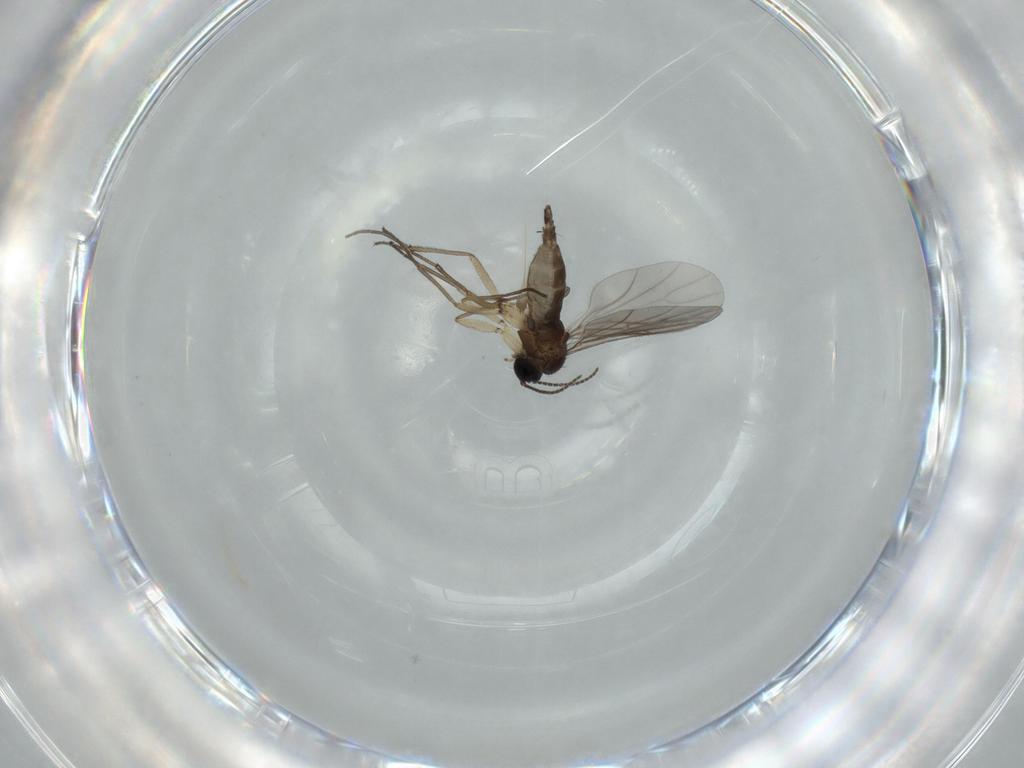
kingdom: Animalia
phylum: Arthropoda
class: Insecta
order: Diptera
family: Sciaridae
